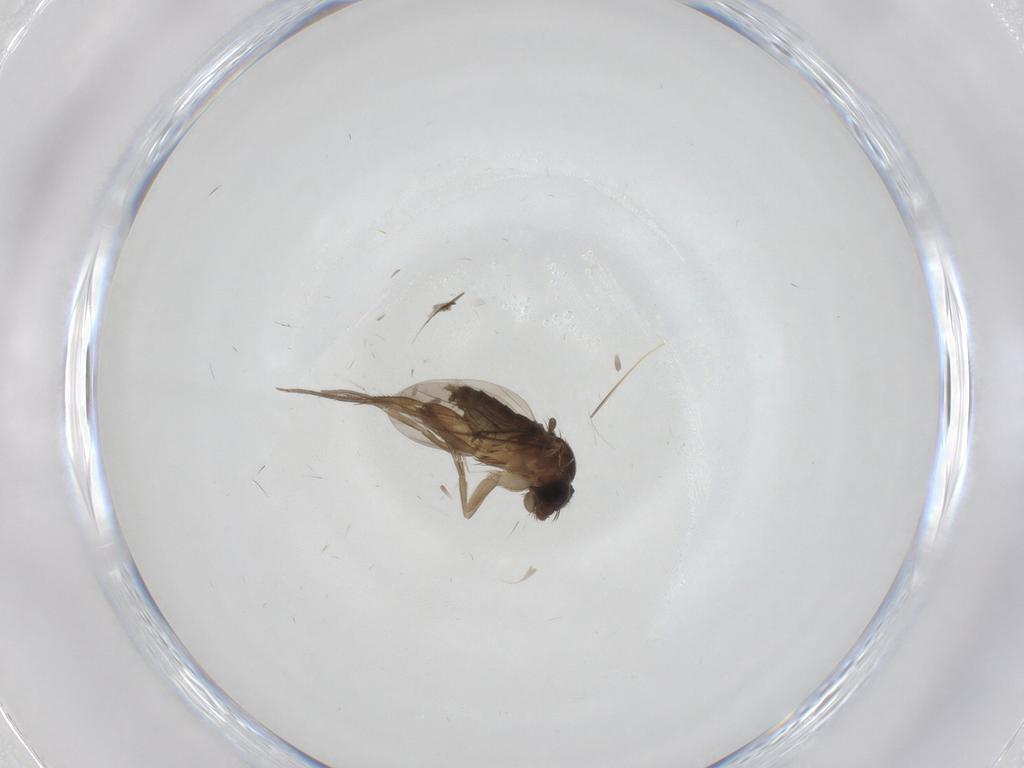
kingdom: Animalia
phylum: Arthropoda
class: Insecta
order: Diptera
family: Phoridae
